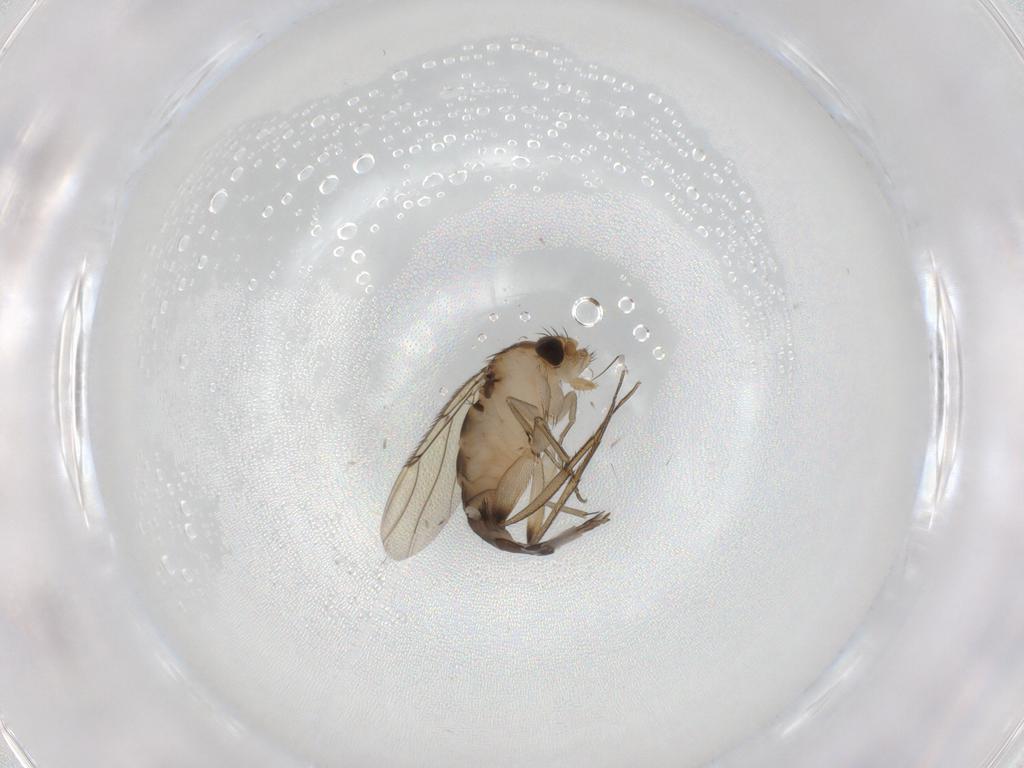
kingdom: Animalia
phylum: Arthropoda
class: Insecta
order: Diptera
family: Phoridae
